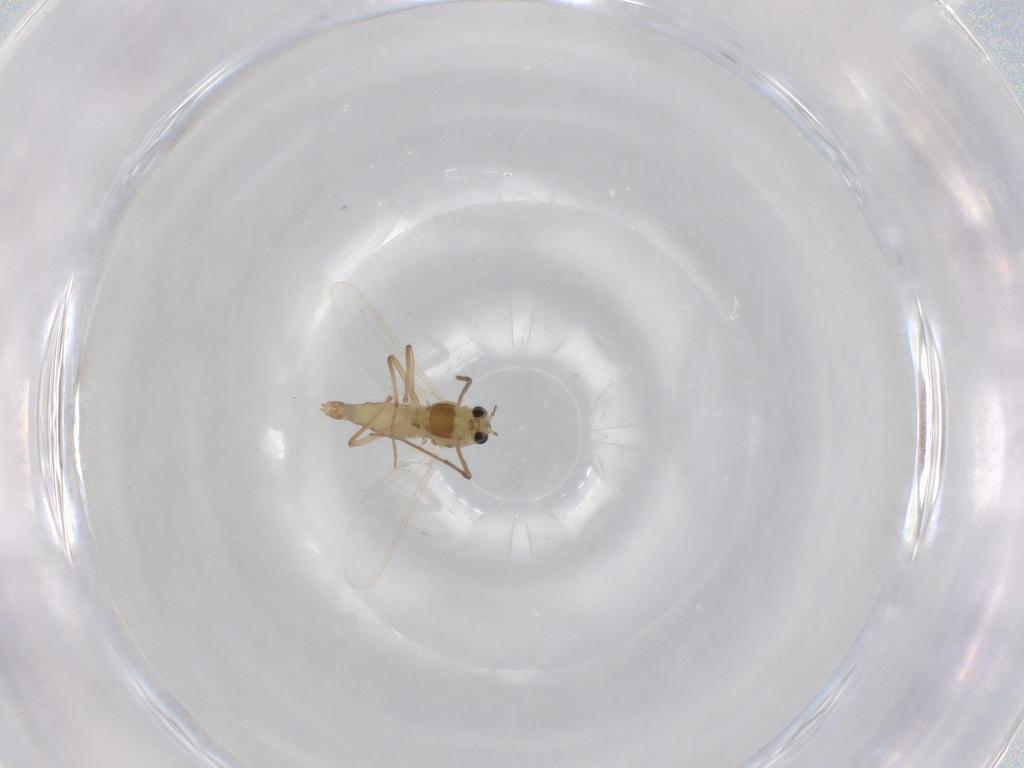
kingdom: Animalia
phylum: Arthropoda
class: Insecta
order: Diptera
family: Chironomidae
